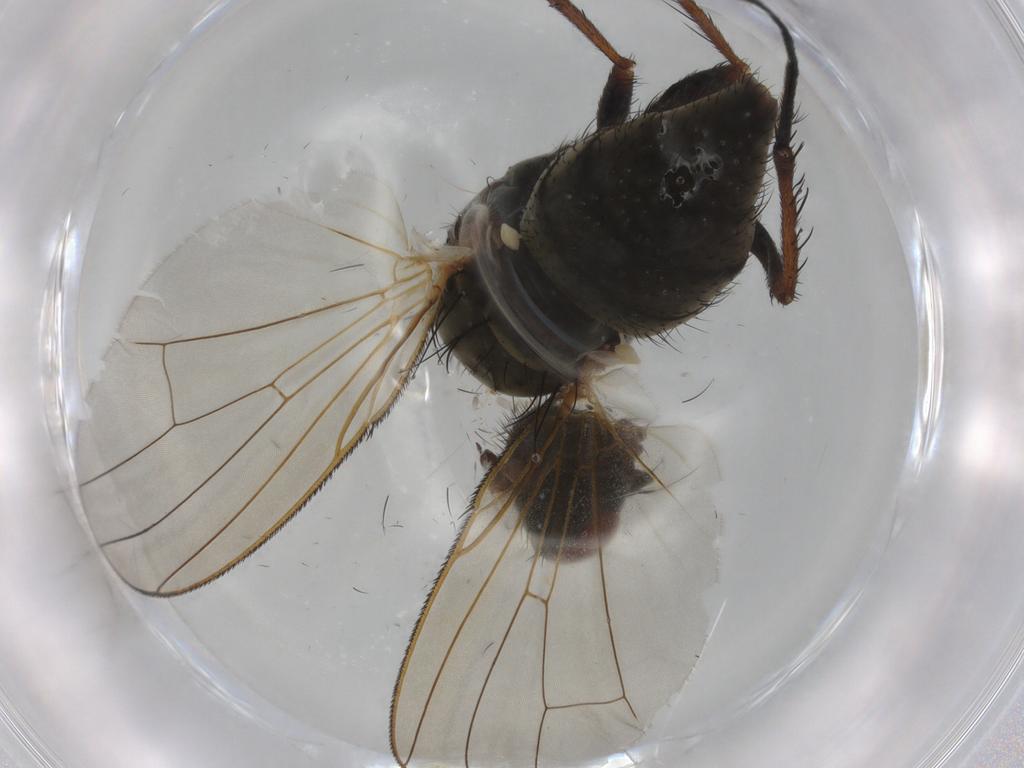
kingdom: Animalia
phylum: Arthropoda
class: Insecta
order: Diptera
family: Anthomyiidae
